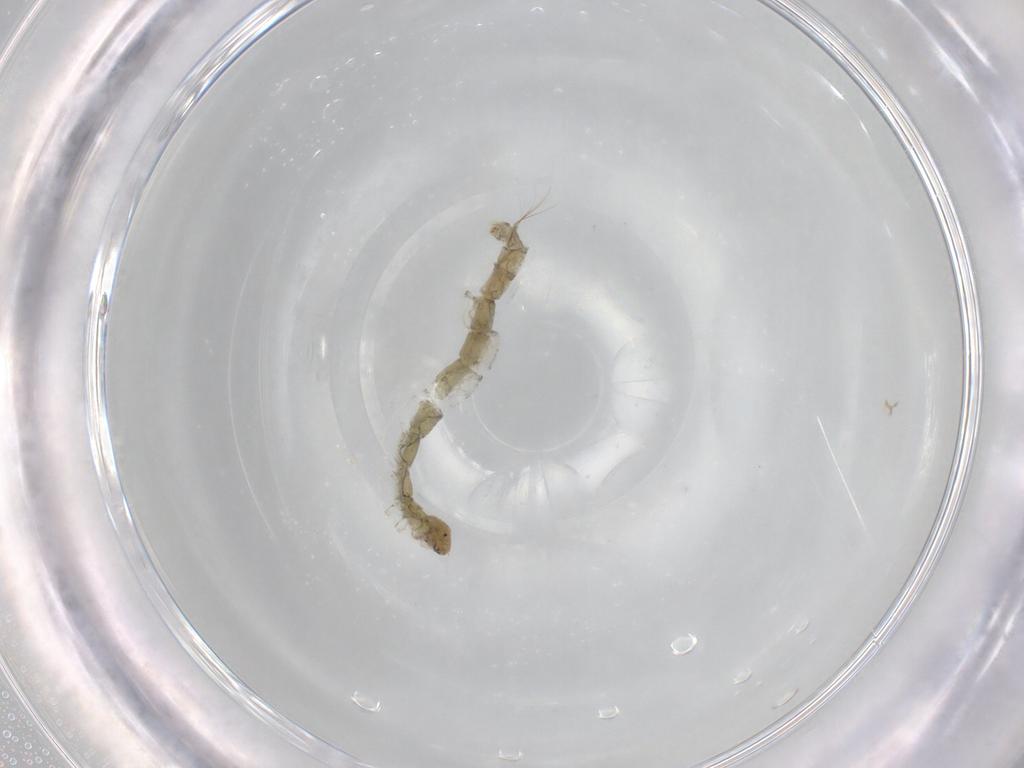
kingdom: Animalia
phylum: Arthropoda
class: Insecta
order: Diptera
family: Chironomidae
